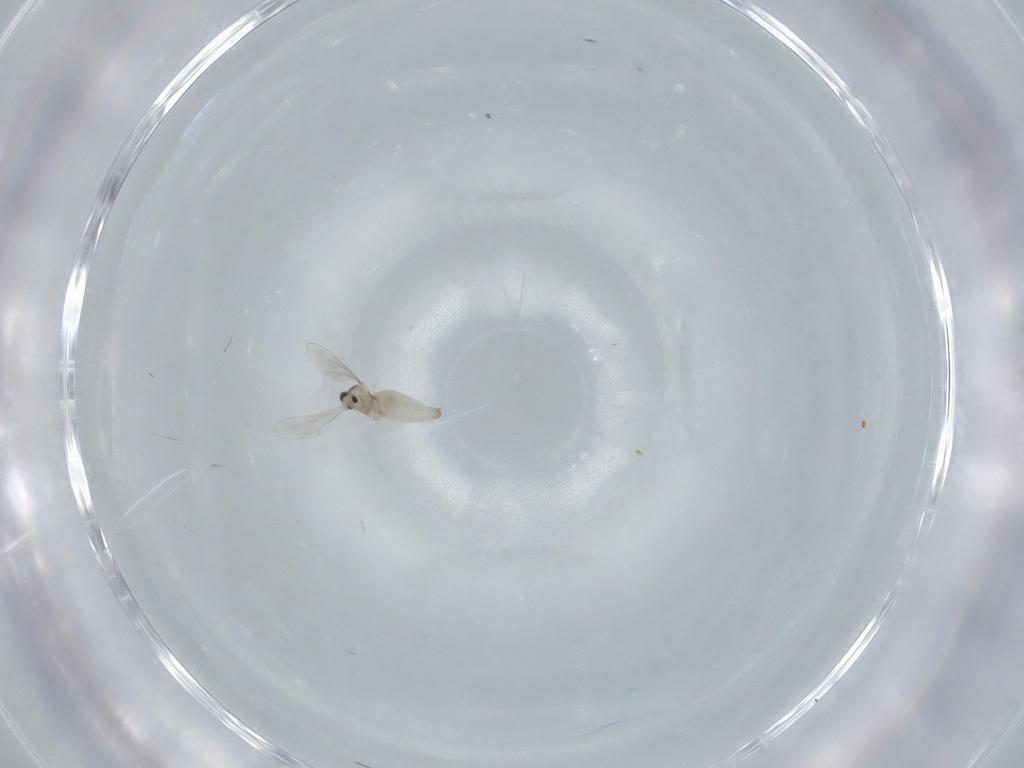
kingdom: Animalia
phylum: Arthropoda
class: Insecta
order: Diptera
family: Cecidomyiidae
